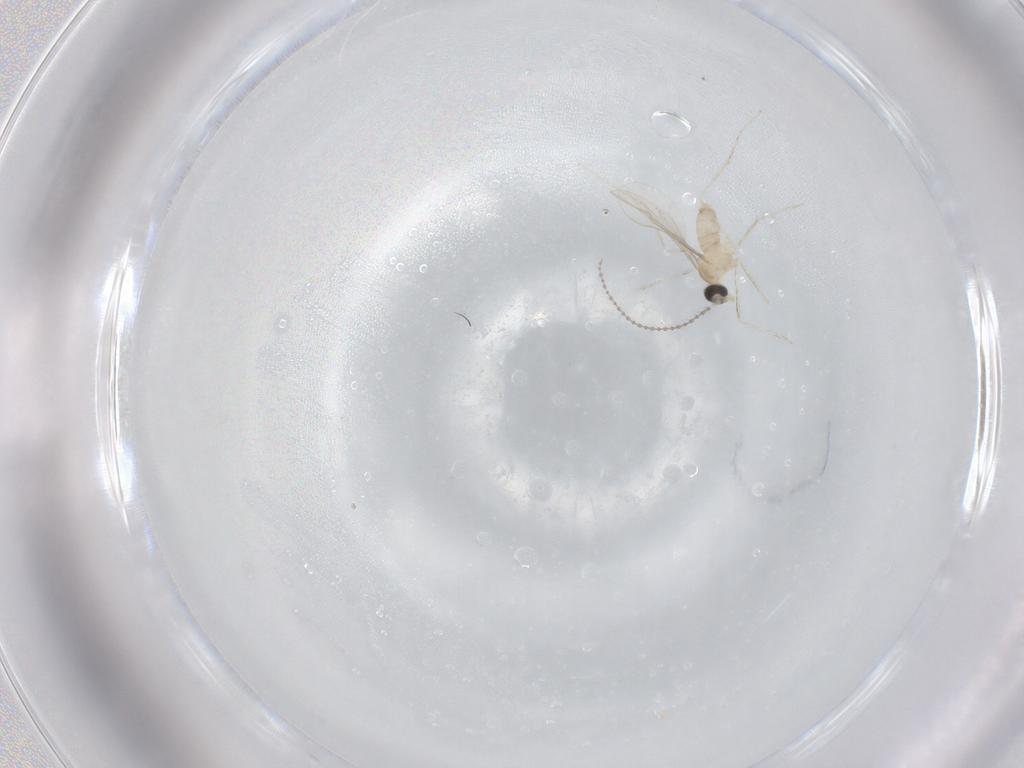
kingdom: Animalia
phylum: Arthropoda
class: Insecta
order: Diptera
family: Cecidomyiidae
